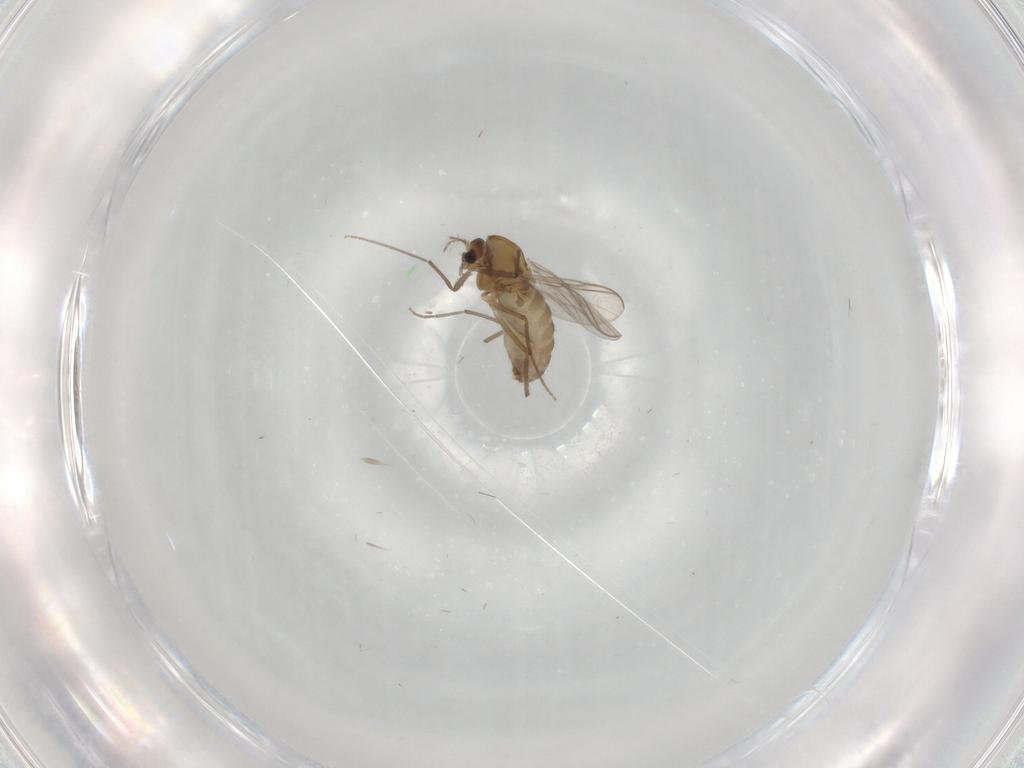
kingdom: Animalia
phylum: Arthropoda
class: Insecta
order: Diptera
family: Chironomidae
